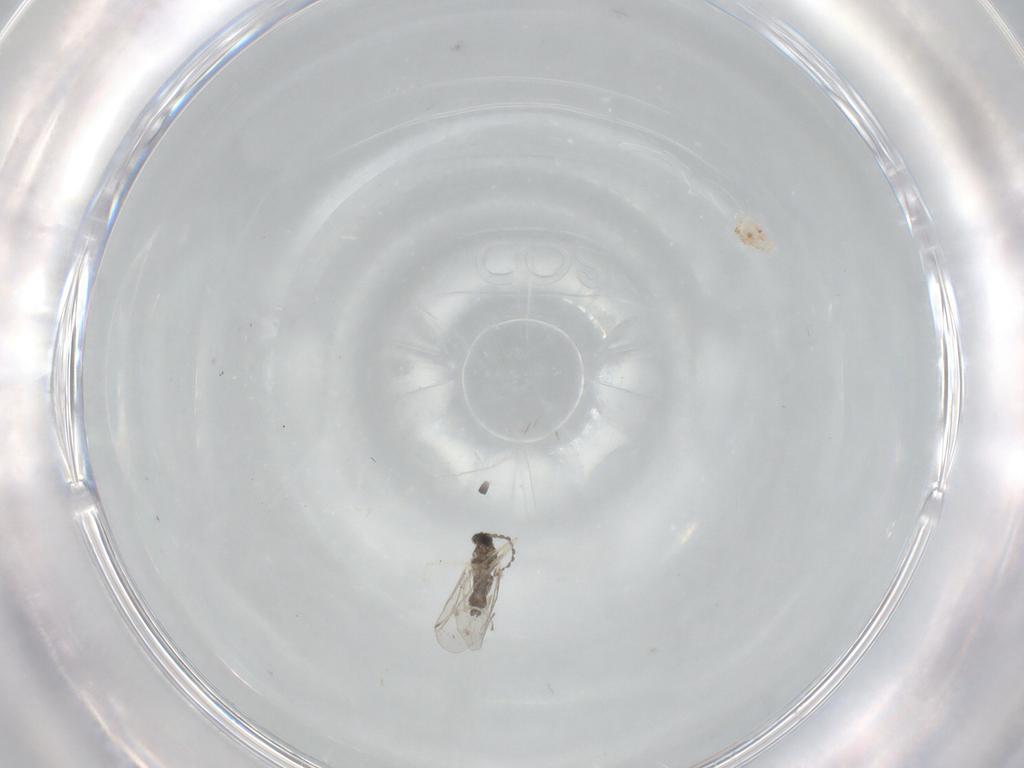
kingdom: Animalia
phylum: Arthropoda
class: Insecta
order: Diptera
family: Cecidomyiidae
